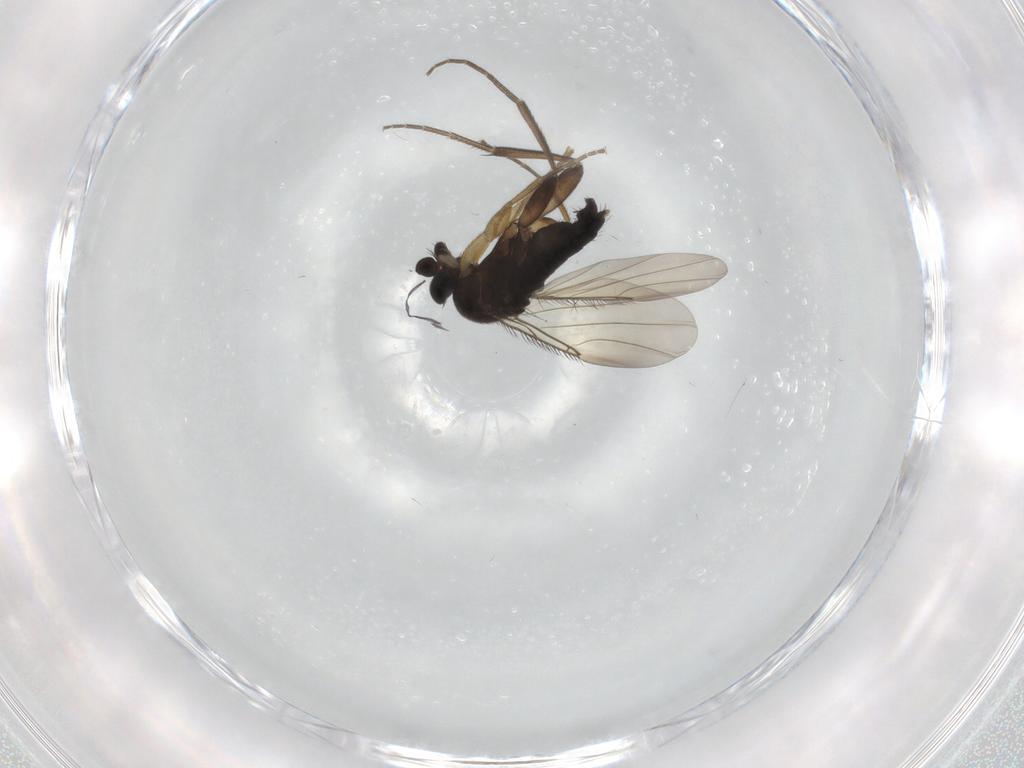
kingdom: Animalia
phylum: Arthropoda
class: Insecta
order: Diptera
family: Phoridae
